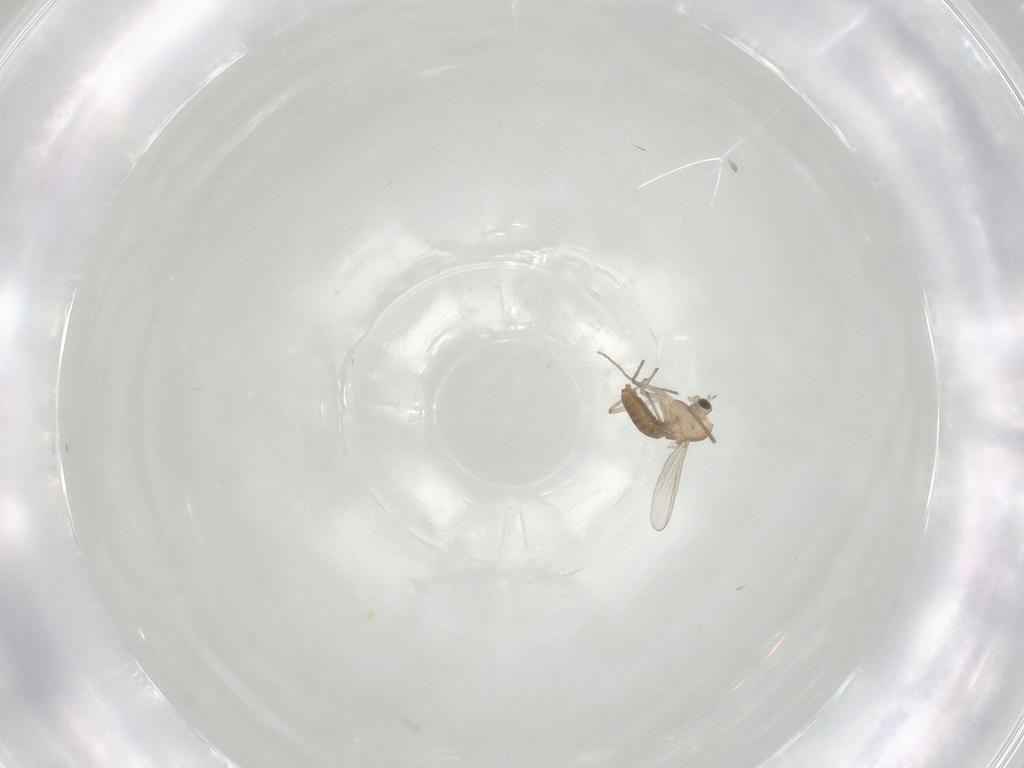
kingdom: Animalia
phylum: Arthropoda
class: Insecta
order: Diptera
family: Chironomidae
